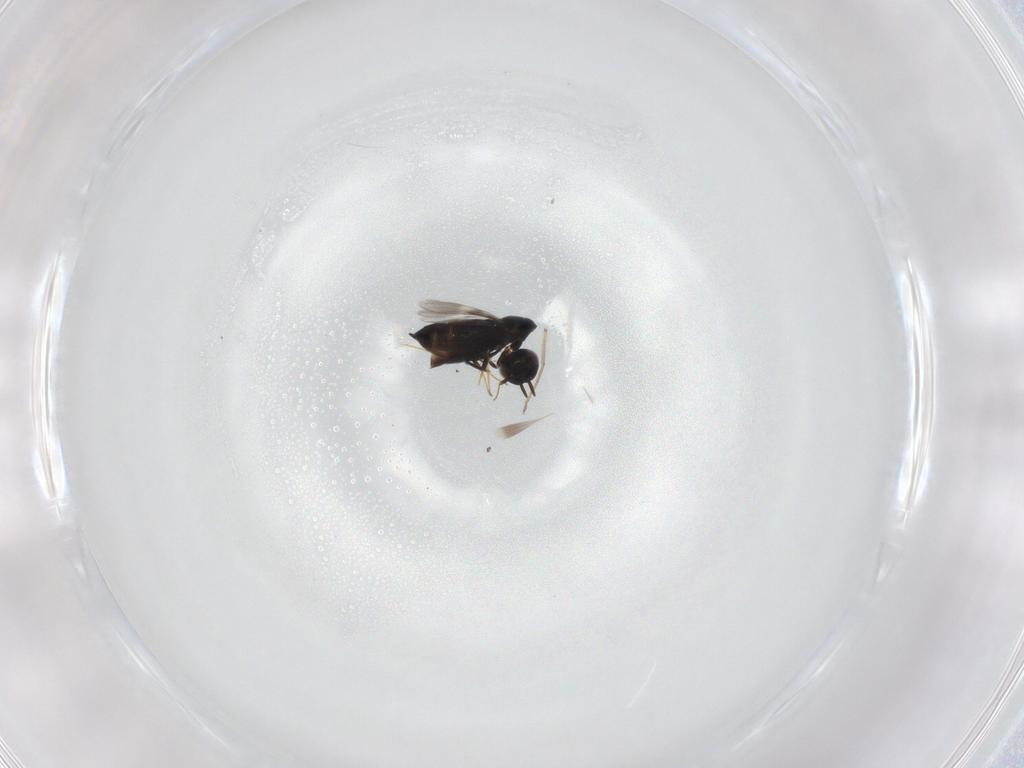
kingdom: Animalia
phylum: Arthropoda
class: Insecta
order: Hymenoptera
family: Signiphoridae
